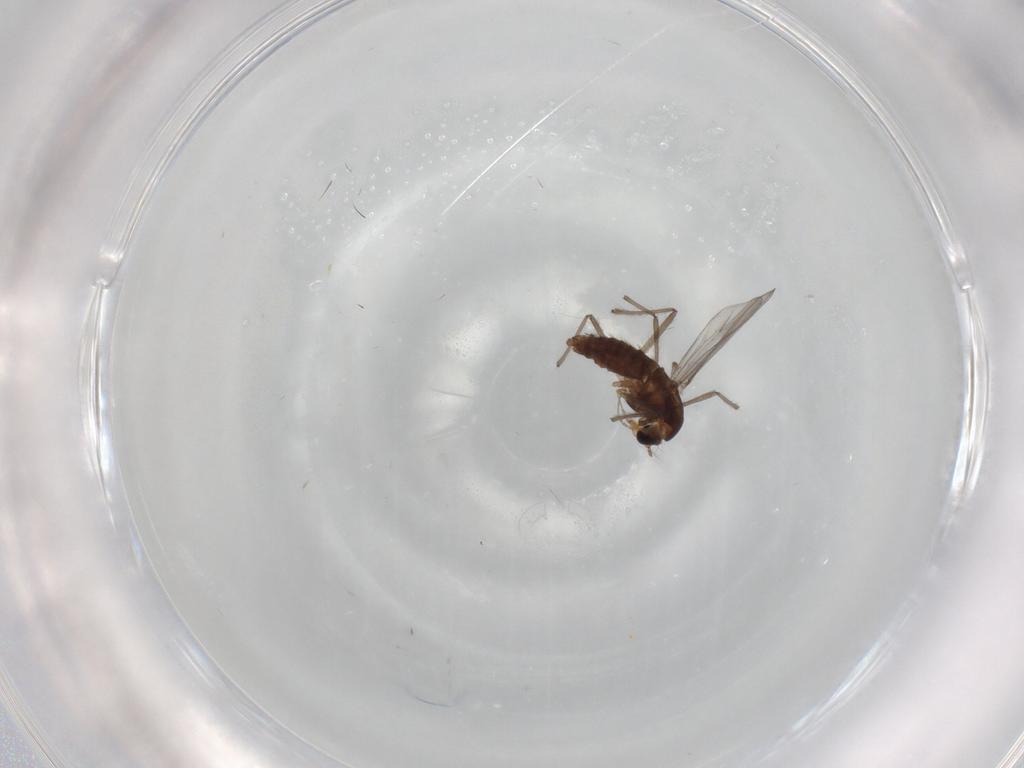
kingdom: Animalia
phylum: Arthropoda
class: Insecta
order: Diptera
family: Chironomidae
